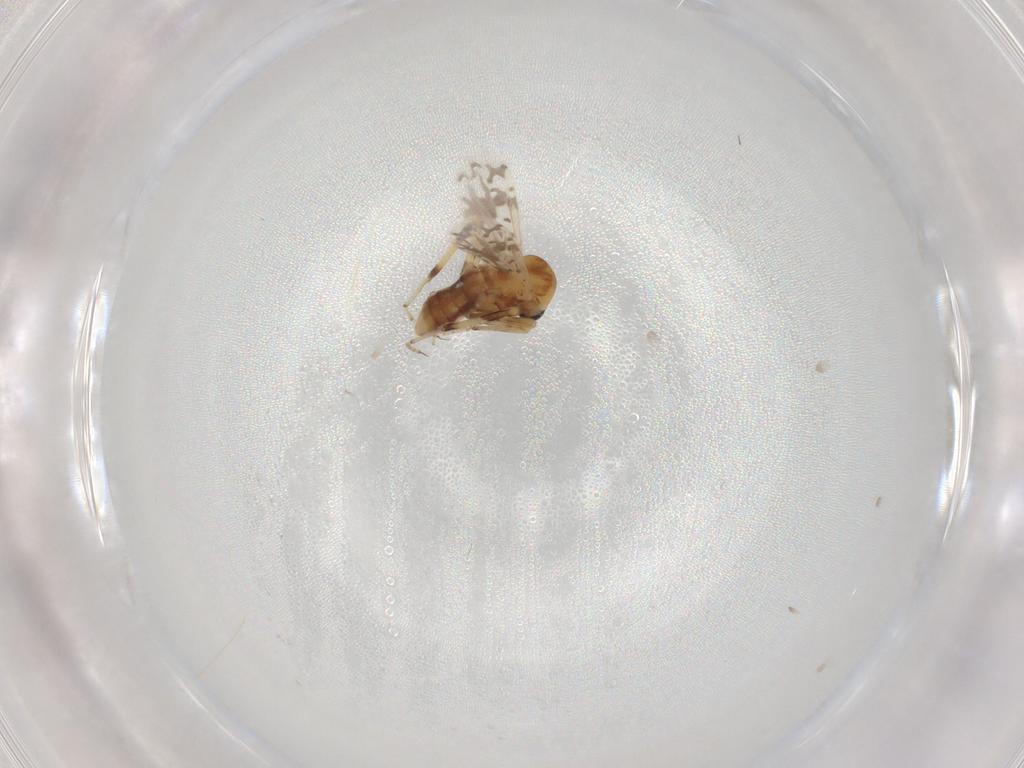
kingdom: Animalia
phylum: Arthropoda
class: Insecta
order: Diptera
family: Ceratopogonidae
